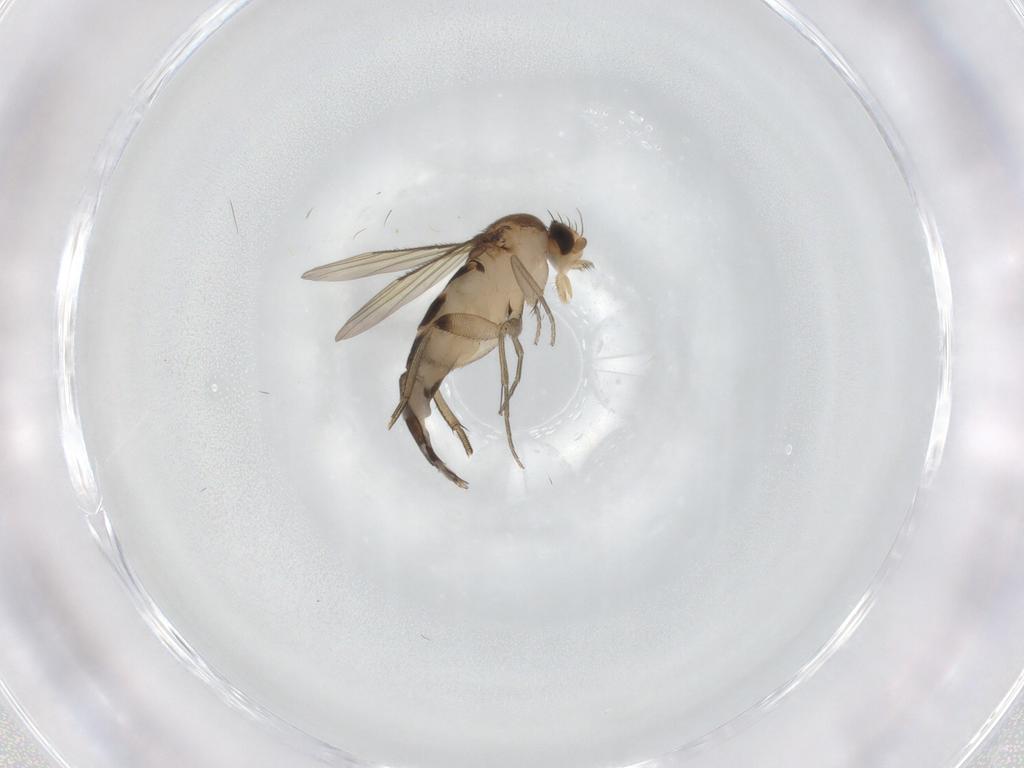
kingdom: Animalia
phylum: Arthropoda
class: Insecta
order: Diptera
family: Phoridae
